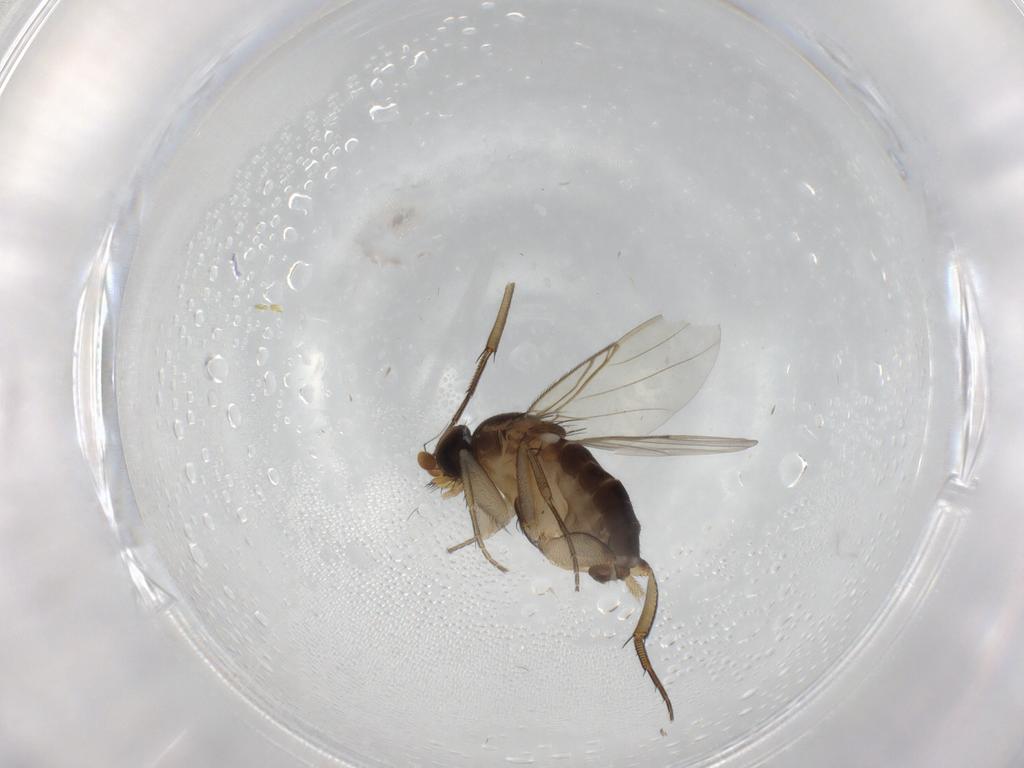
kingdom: Animalia
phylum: Arthropoda
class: Insecta
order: Diptera
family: Phoridae
